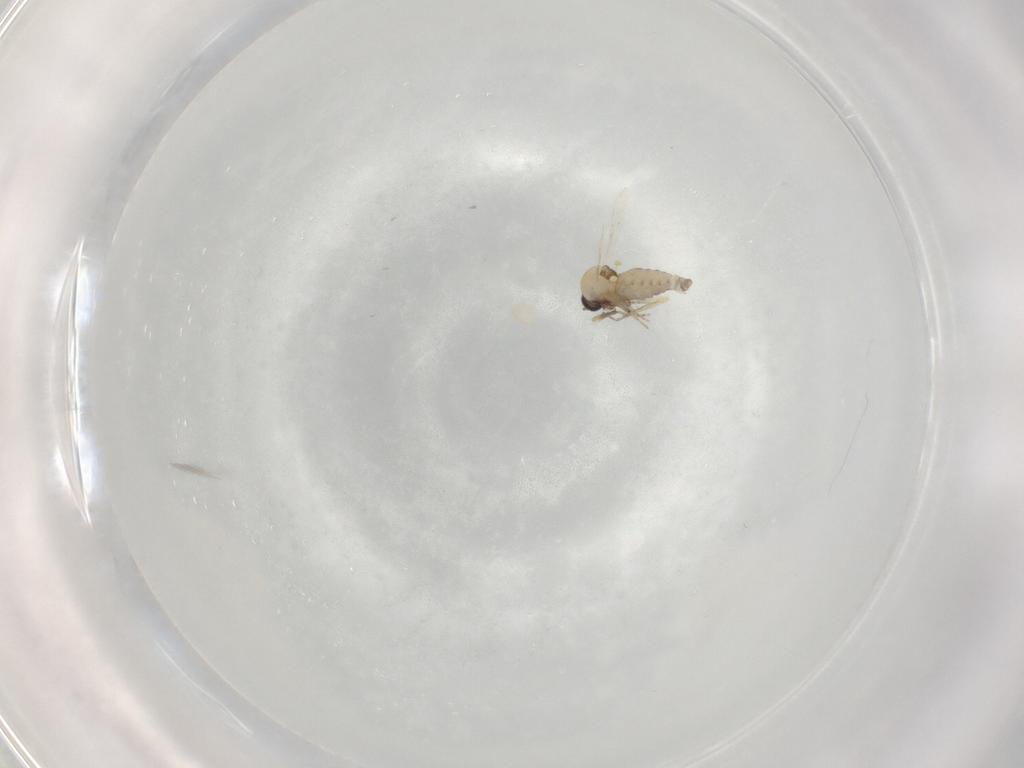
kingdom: Animalia
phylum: Arthropoda
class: Insecta
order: Diptera
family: Ceratopogonidae
